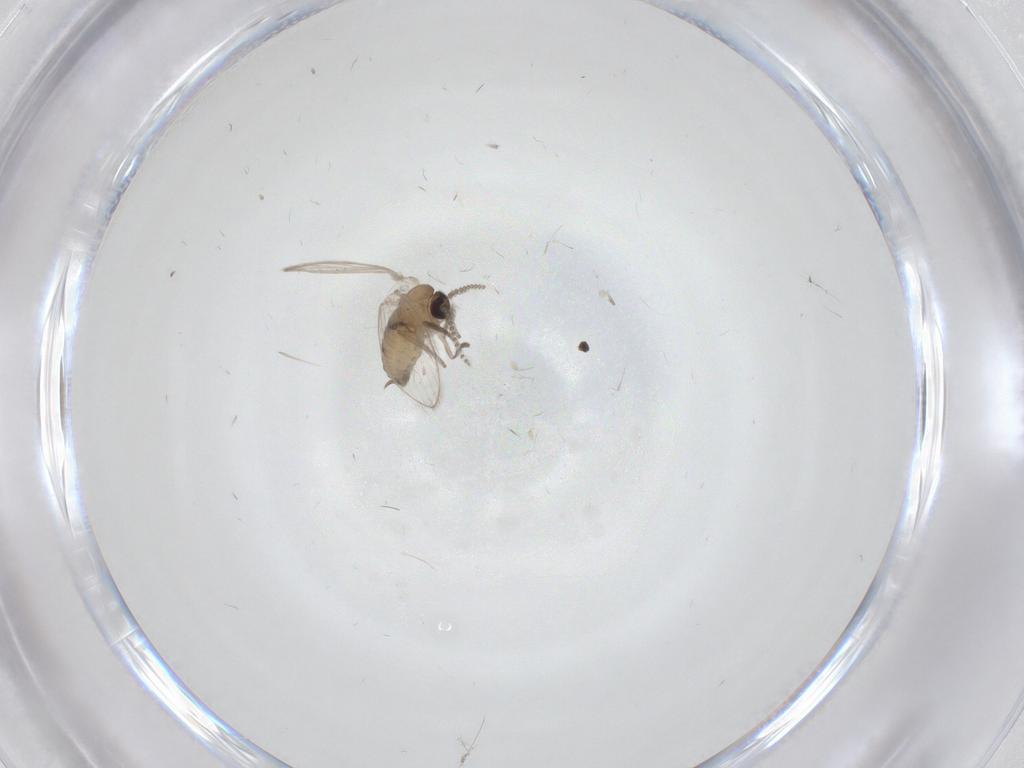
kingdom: Animalia
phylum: Arthropoda
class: Insecta
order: Diptera
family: Psychodidae
